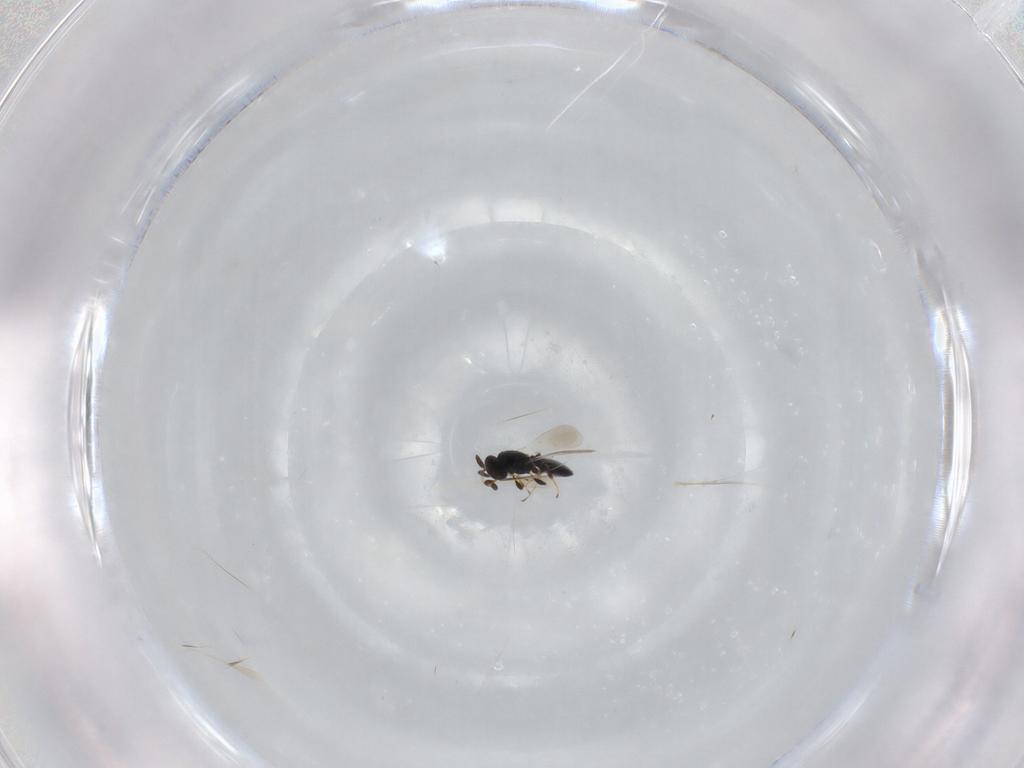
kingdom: Animalia
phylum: Arthropoda
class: Insecta
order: Hymenoptera
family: Platygastridae
